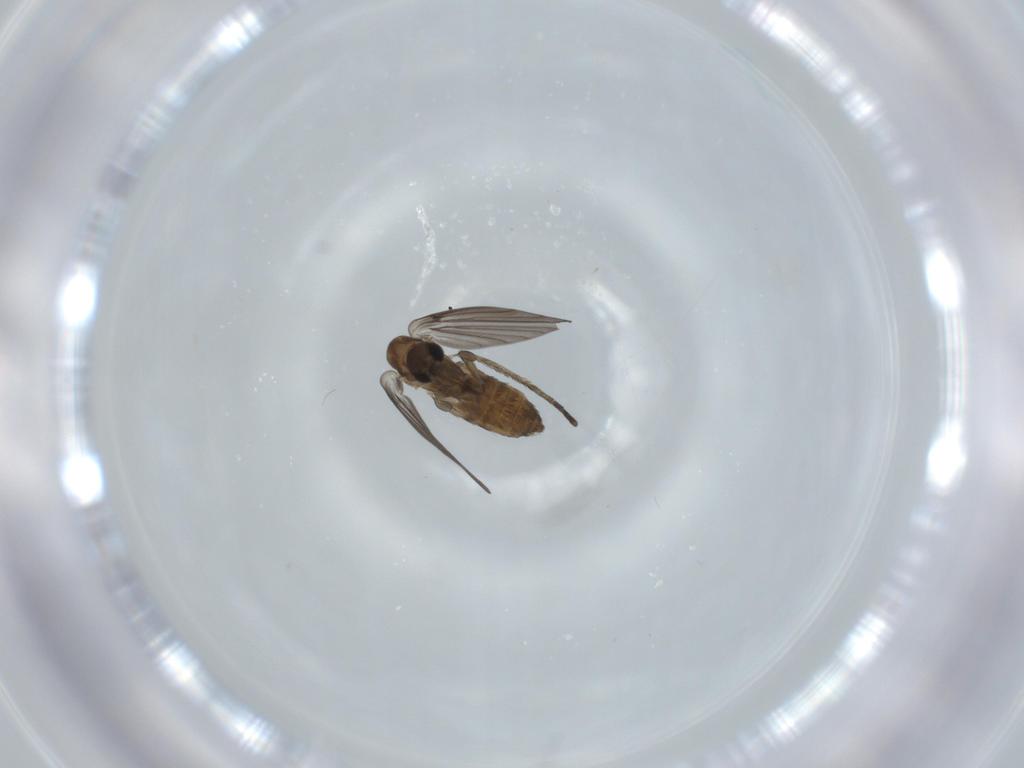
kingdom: Animalia
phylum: Arthropoda
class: Insecta
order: Diptera
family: Psychodidae
